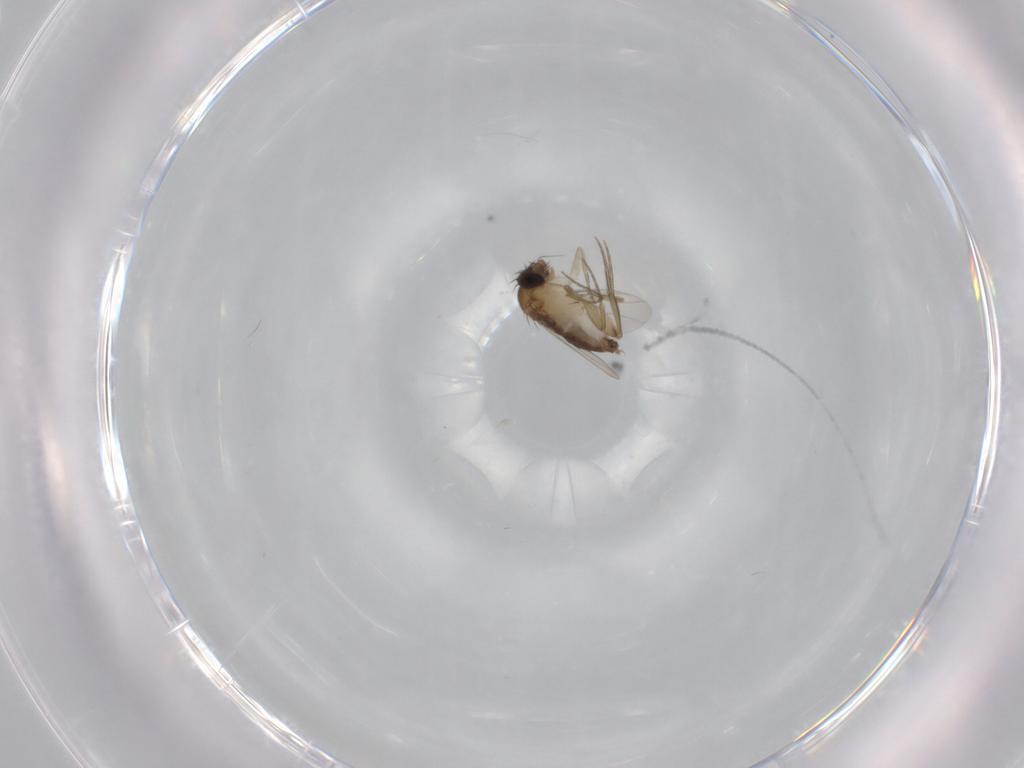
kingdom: Animalia
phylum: Arthropoda
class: Insecta
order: Diptera
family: Phoridae
